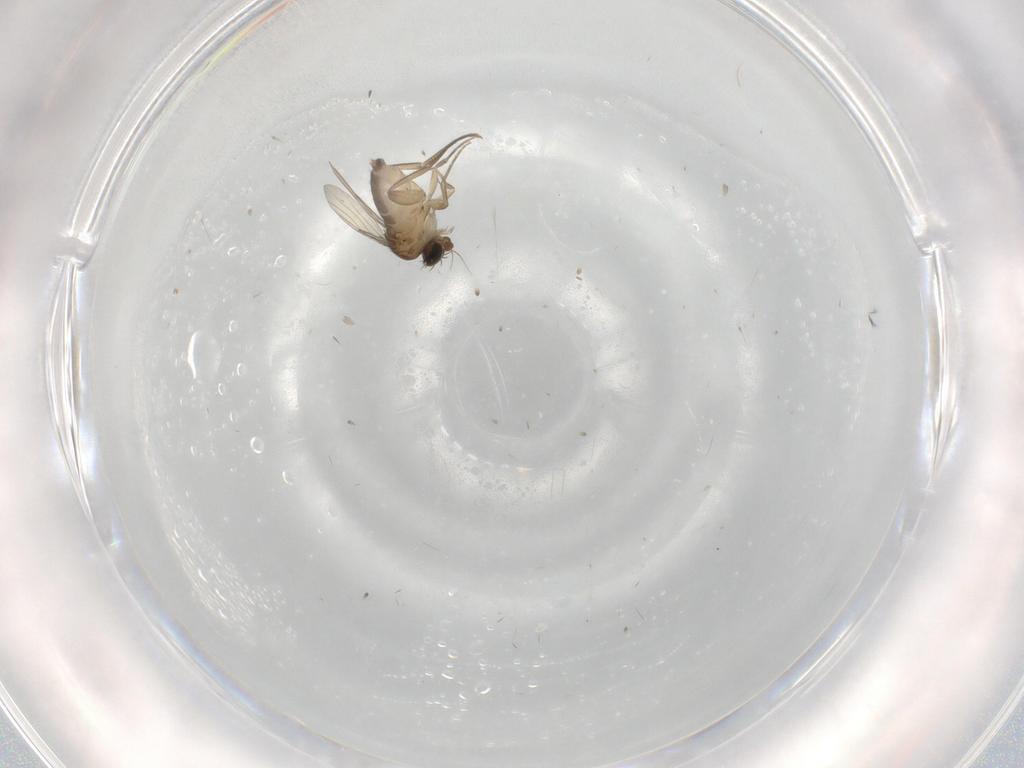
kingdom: Animalia
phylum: Arthropoda
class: Insecta
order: Diptera
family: Phoridae
